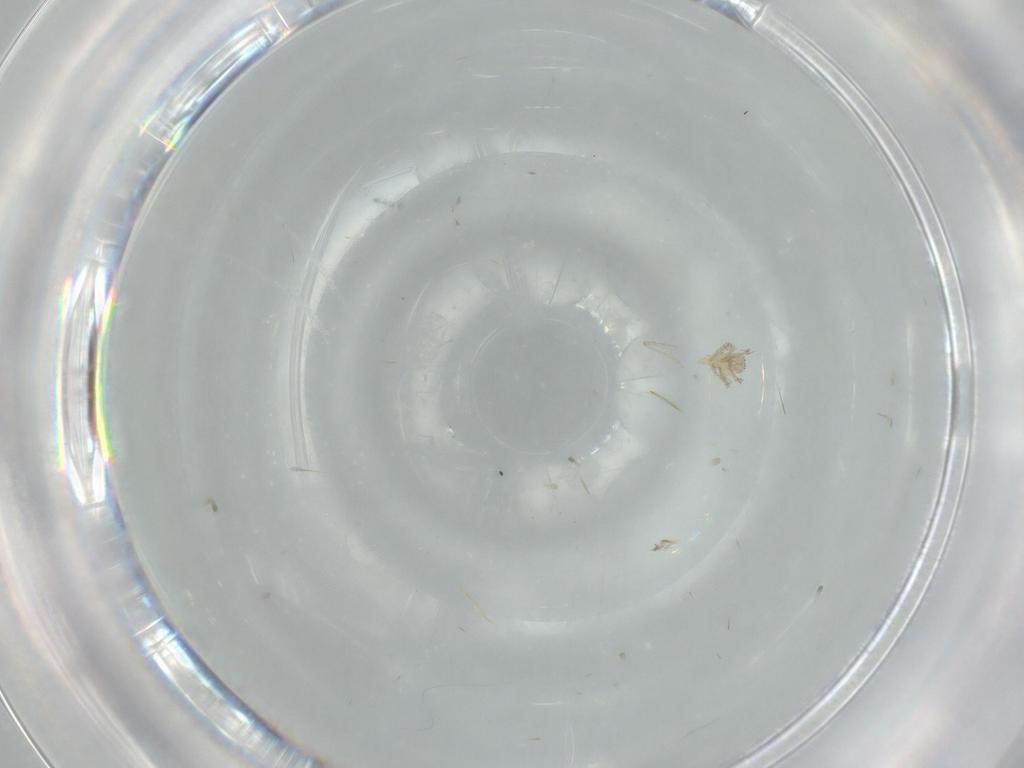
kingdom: Animalia
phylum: Arthropoda
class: Arachnida
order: Trombidiformes
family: Erythraeidae
